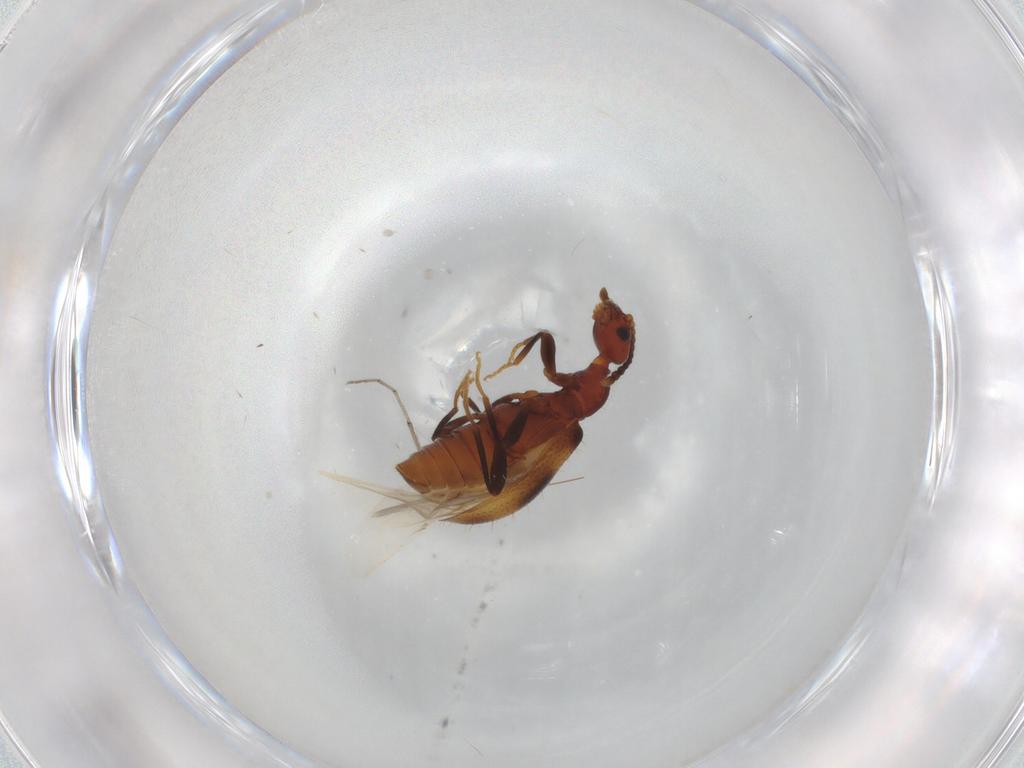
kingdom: Animalia
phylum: Arthropoda
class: Insecta
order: Coleoptera
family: Anthicidae
